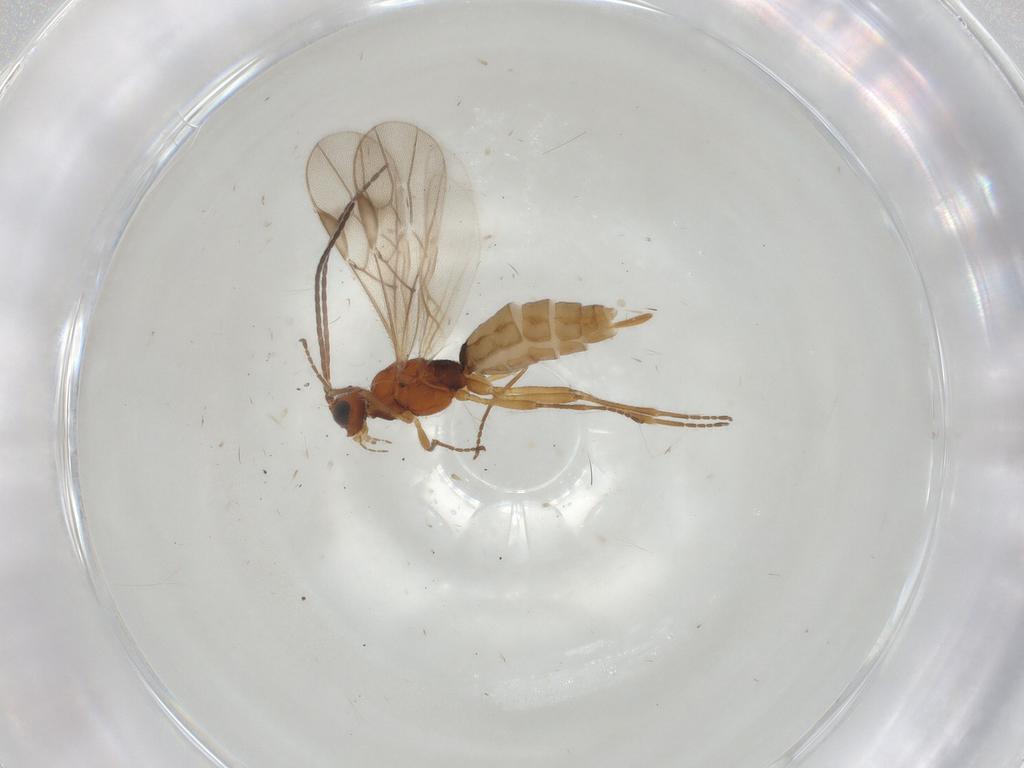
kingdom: Animalia
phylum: Arthropoda
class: Insecta
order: Hymenoptera
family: Braconidae
